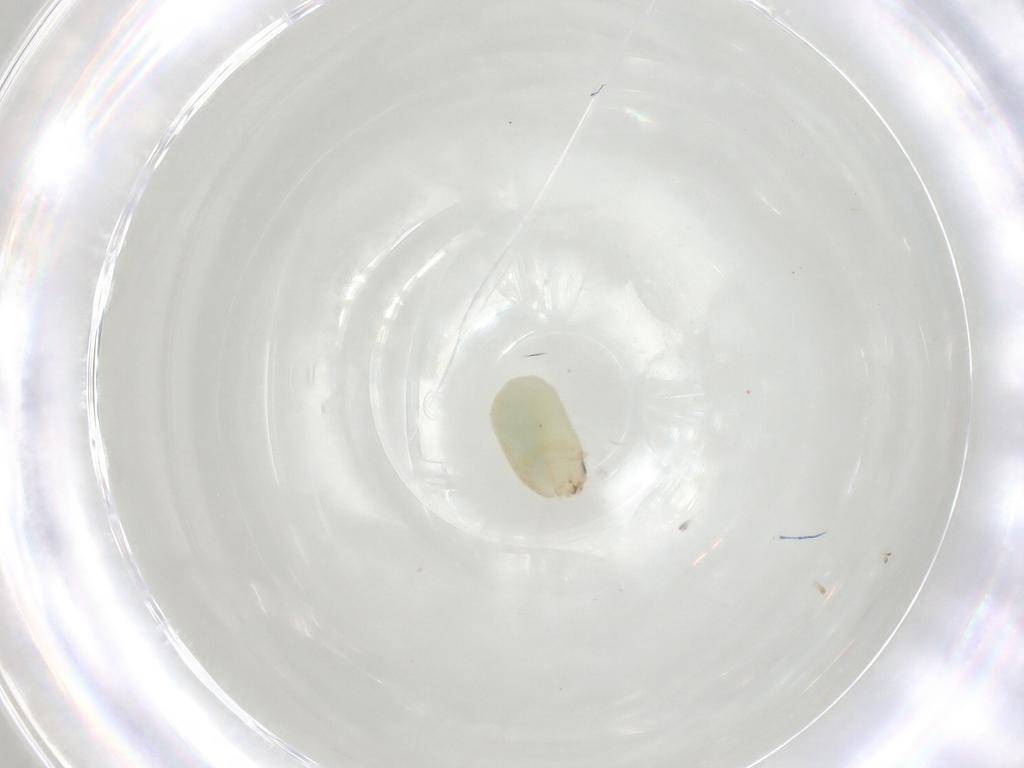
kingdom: Animalia
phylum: Arthropoda
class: Insecta
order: Hymenoptera
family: Dryinidae
